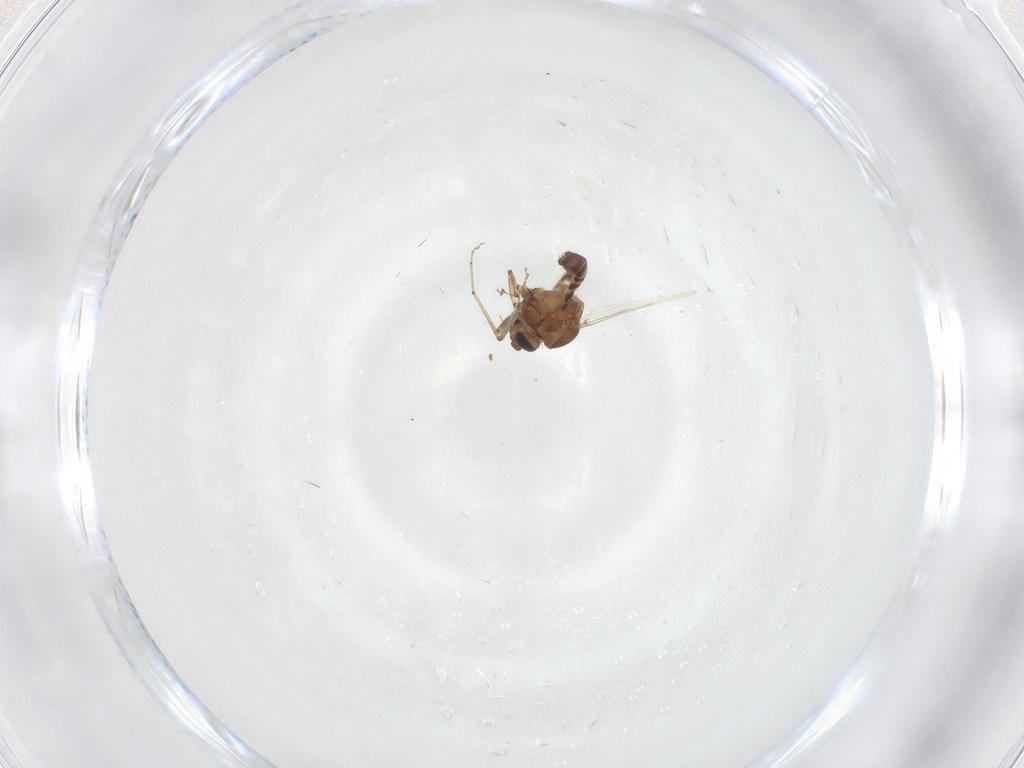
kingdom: Animalia
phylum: Arthropoda
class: Insecta
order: Diptera
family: Ceratopogonidae
